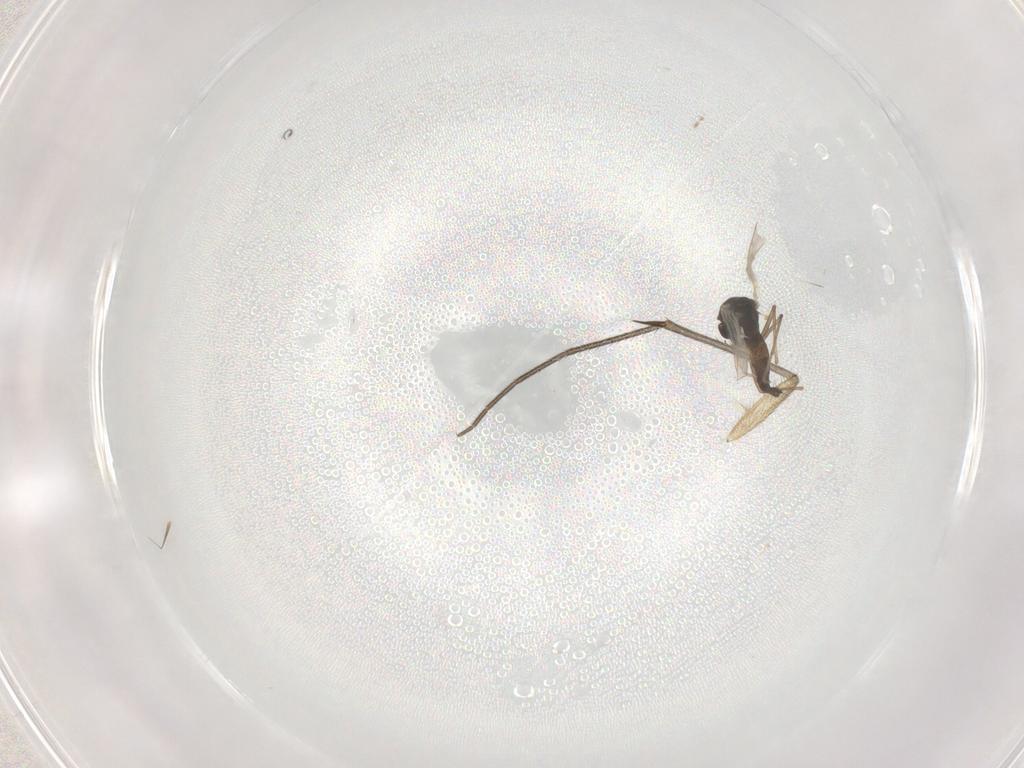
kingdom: Animalia
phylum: Arthropoda
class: Insecta
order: Diptera
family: Chironomidae
